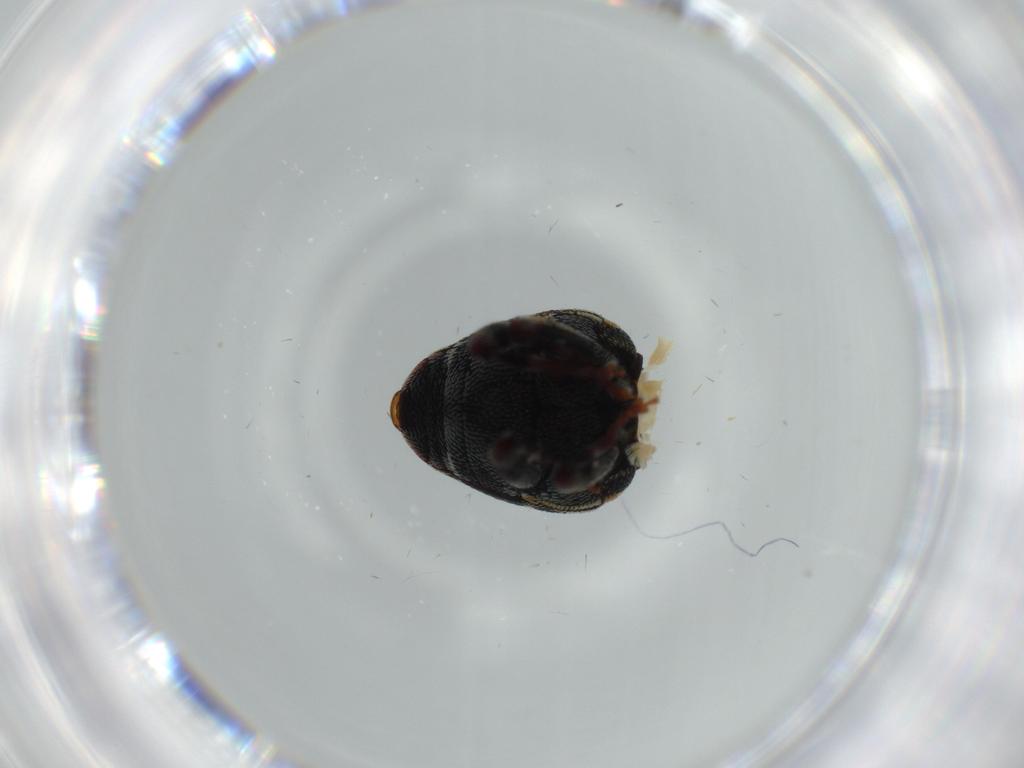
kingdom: Animalia
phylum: Arthropoda
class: Insecta
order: Coleoptera
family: Curculionidae
